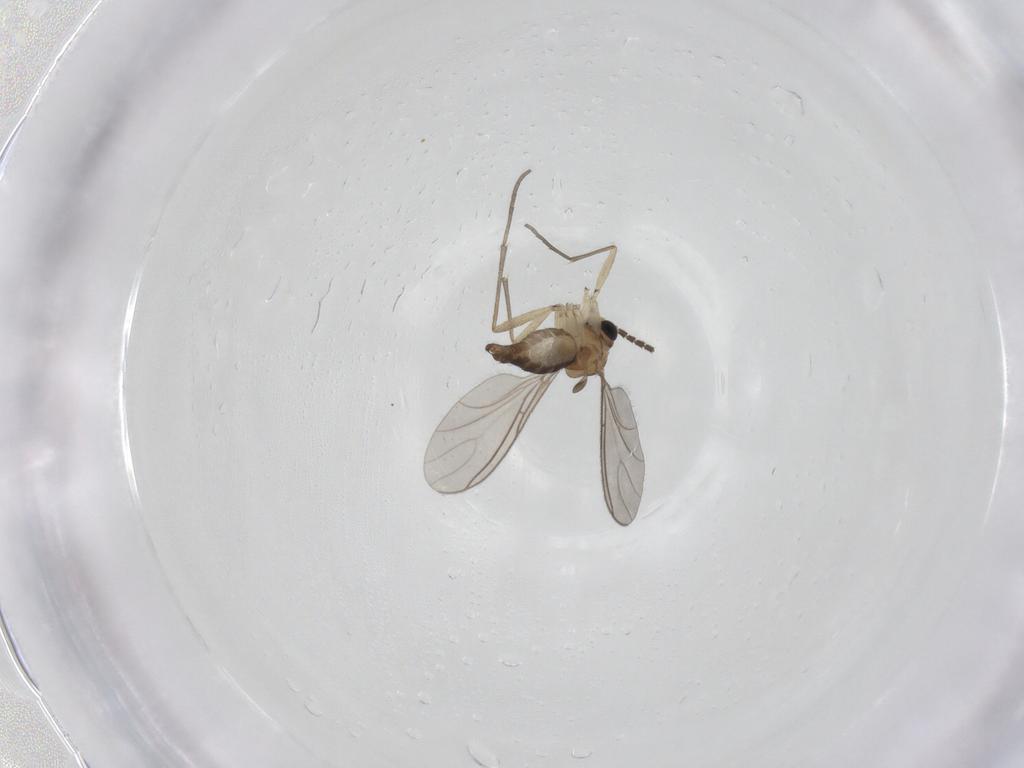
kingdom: Animalia
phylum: Arthropoda
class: Insecta
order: Diptera
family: Sciaridae
